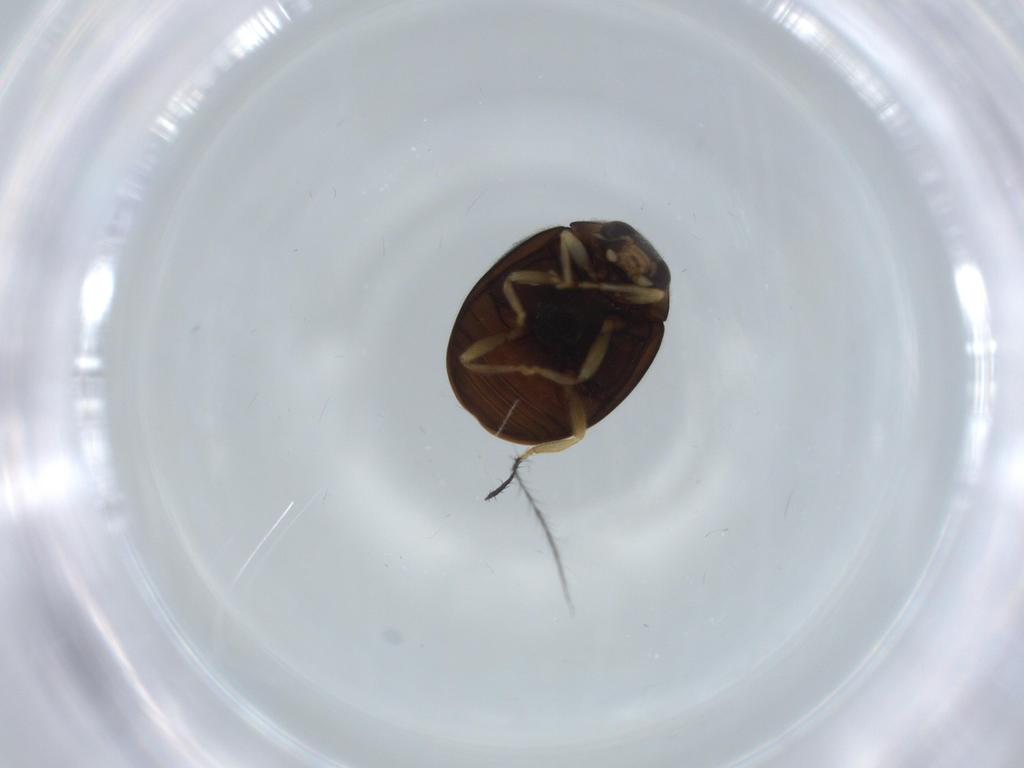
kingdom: Animalia
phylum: Arthropoda
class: Insecta
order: Coleoptera
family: Coccinellidae
